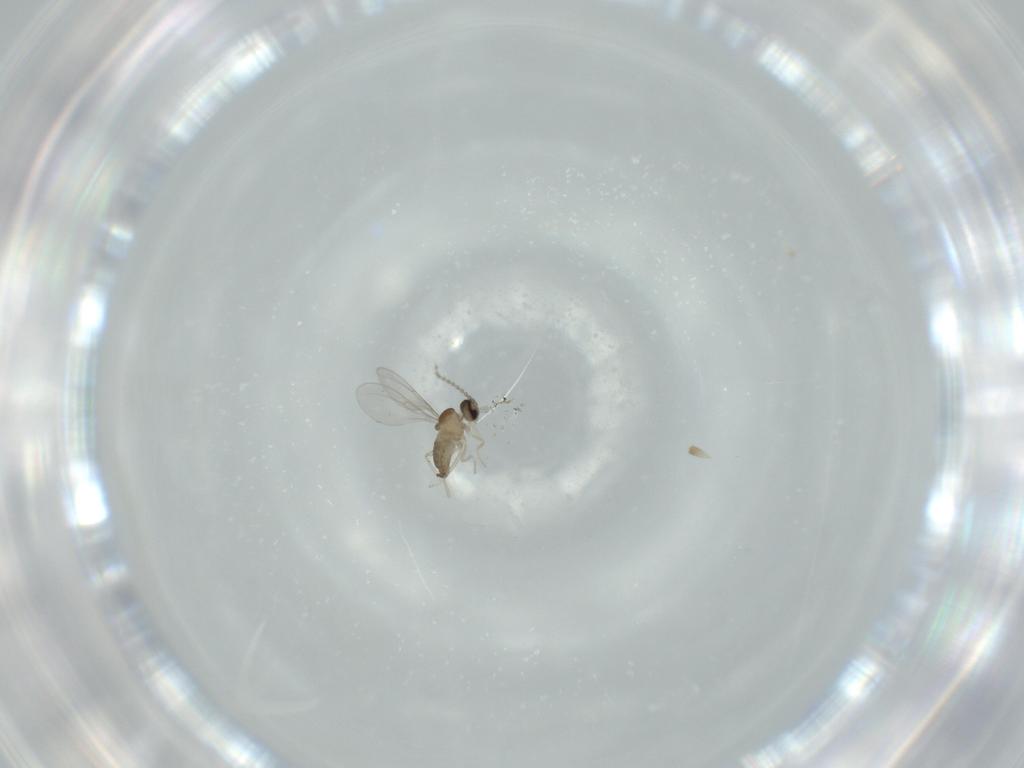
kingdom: Animalia
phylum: Arthropoda
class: Insecta
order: Diptera
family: Cecidomyiidae
